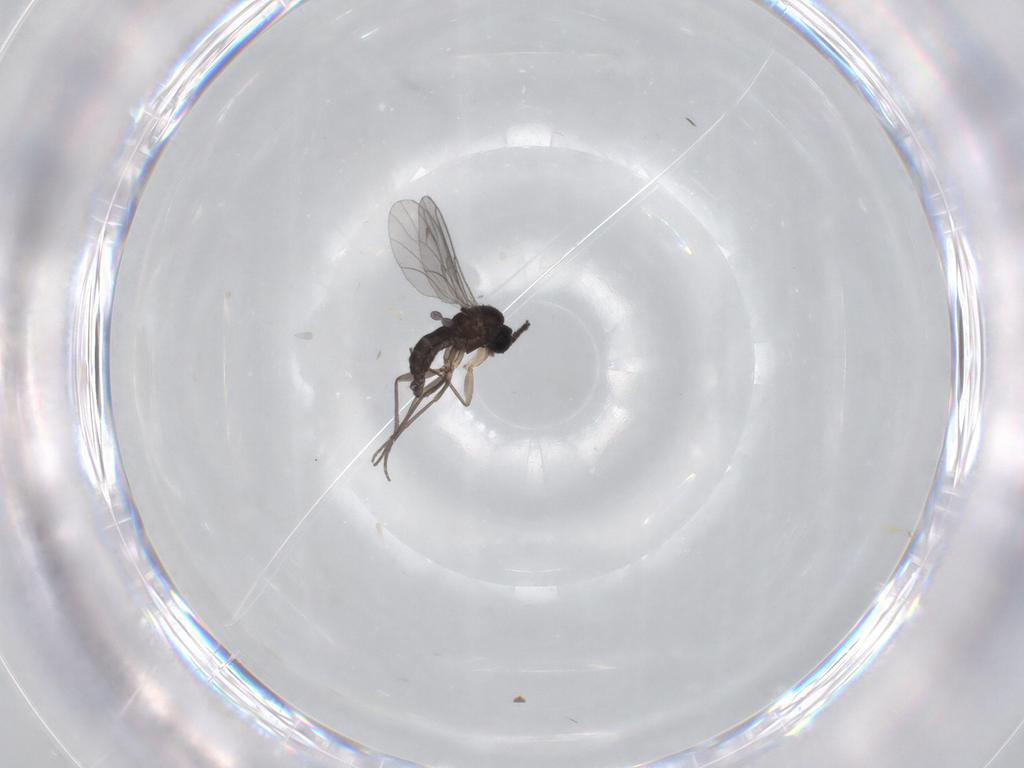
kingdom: Animalia
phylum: Arthropoda
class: Insecta
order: Diptera
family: Sciaridae
